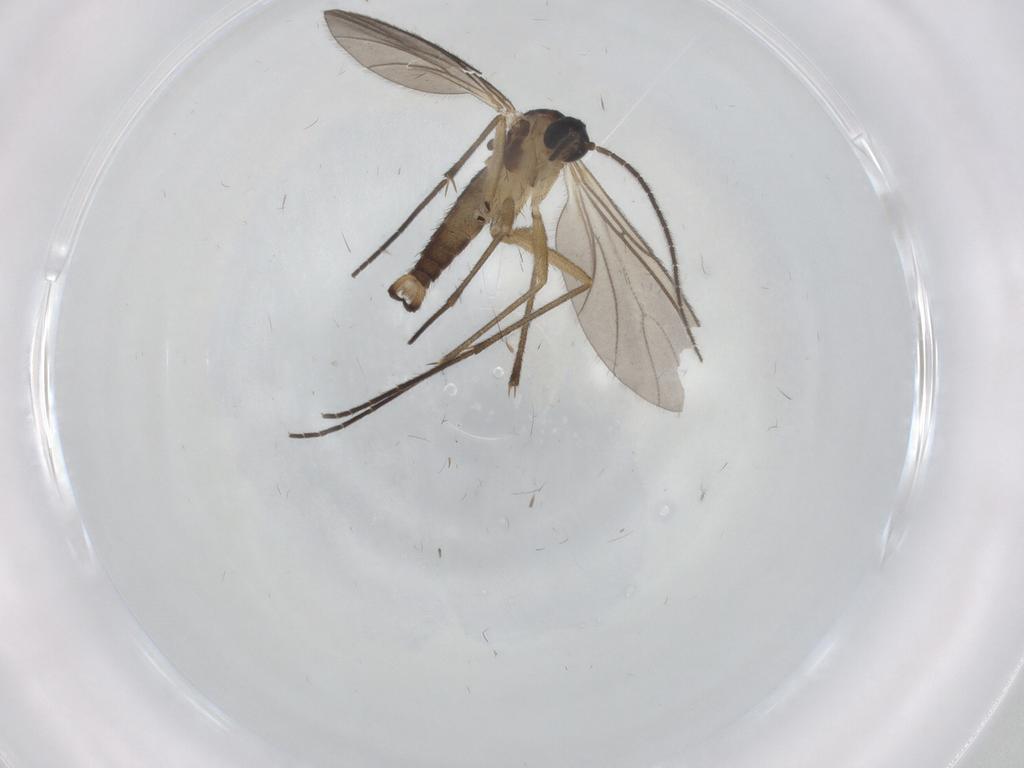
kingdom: Animalia
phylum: Arthropoda
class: Insecta
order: Diptera
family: Sciaridae
